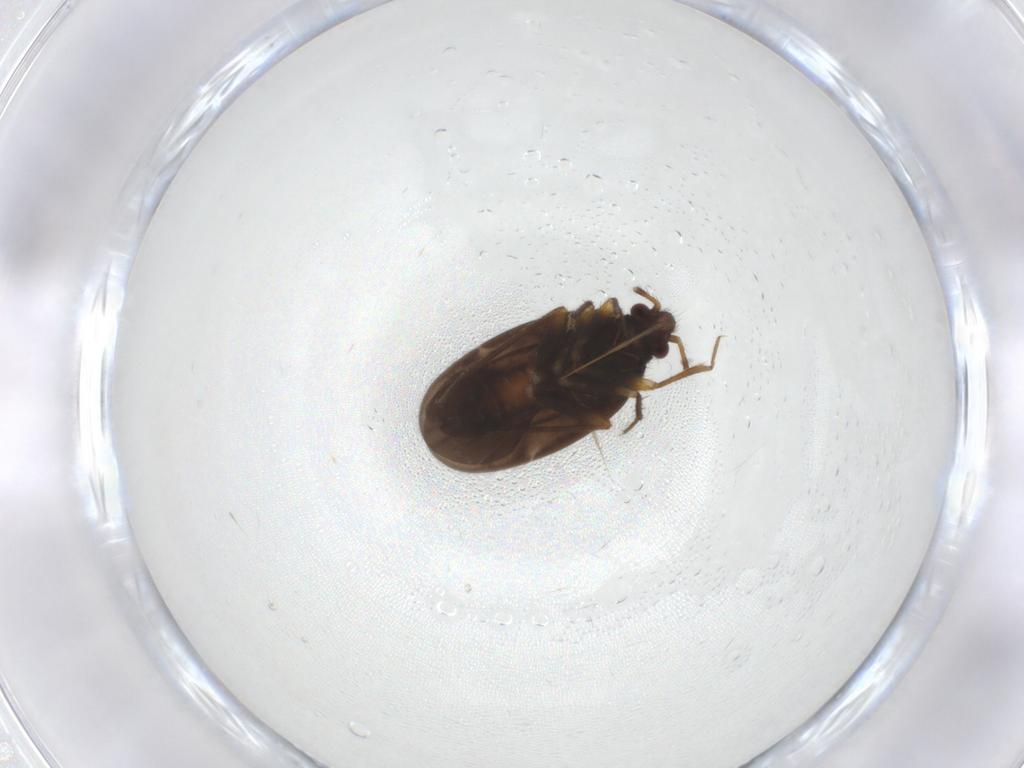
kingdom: Animalia
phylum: Arthropoda
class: Insecta
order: Hemiptera
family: Ceratocombidae
